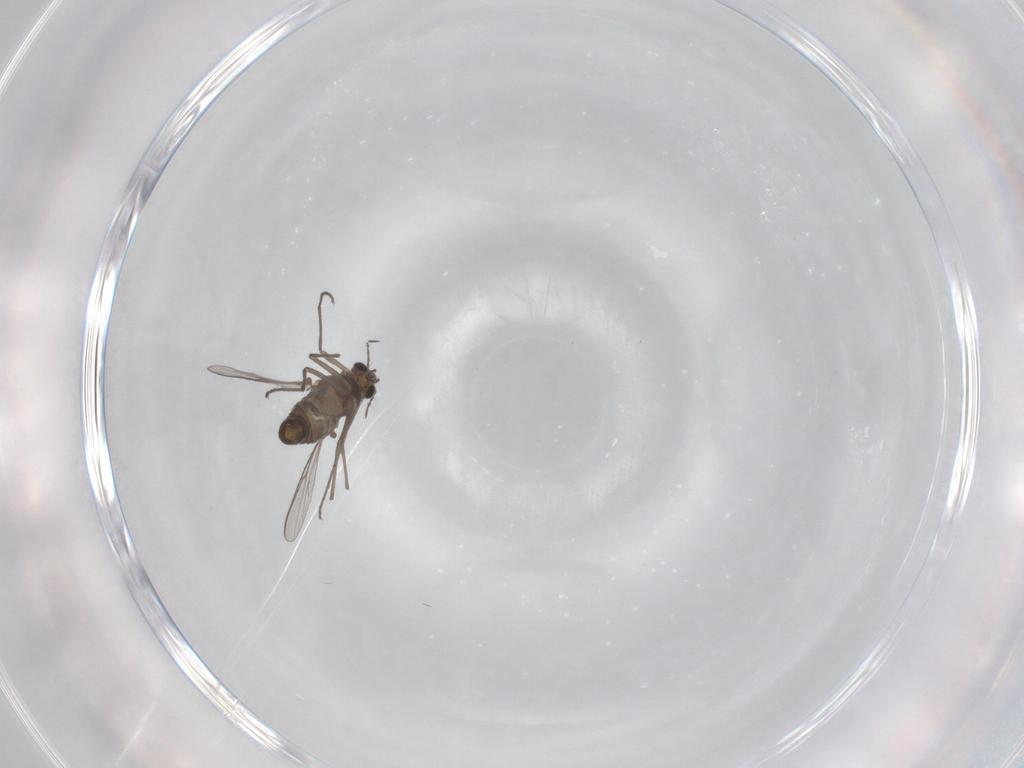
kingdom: Animalia
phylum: Arthropoda
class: Insecta
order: Diptera
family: Chironomidae
